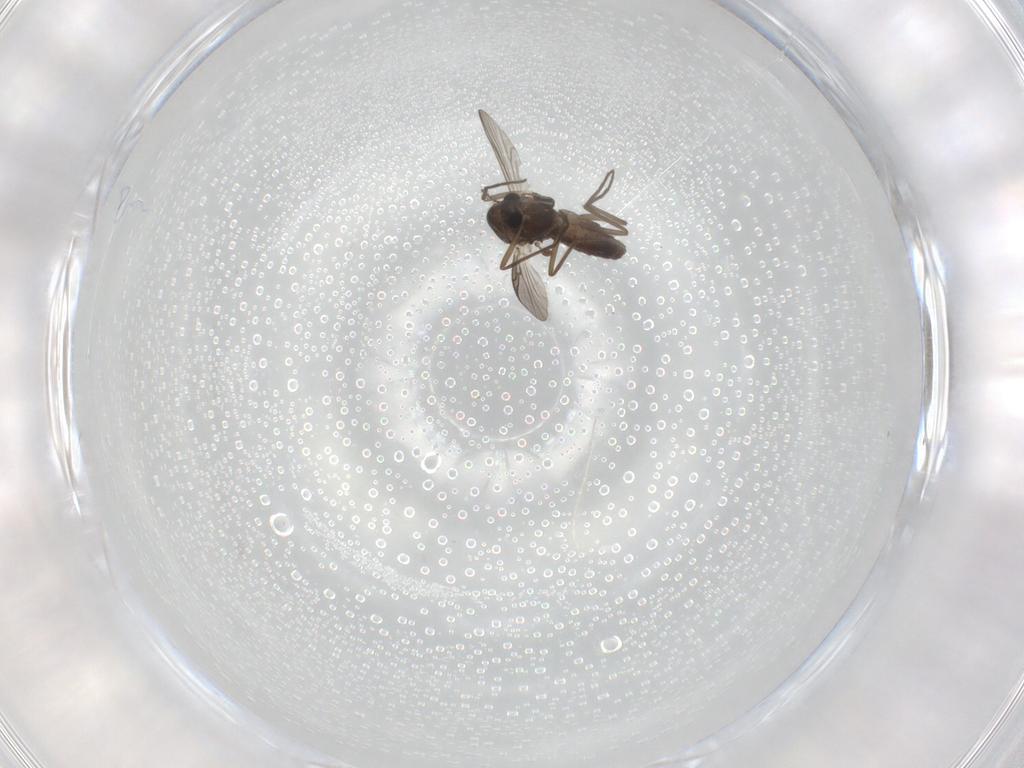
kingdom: Animalia
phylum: Arthropoda
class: Insecta
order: Diptera
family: Chironomidae
